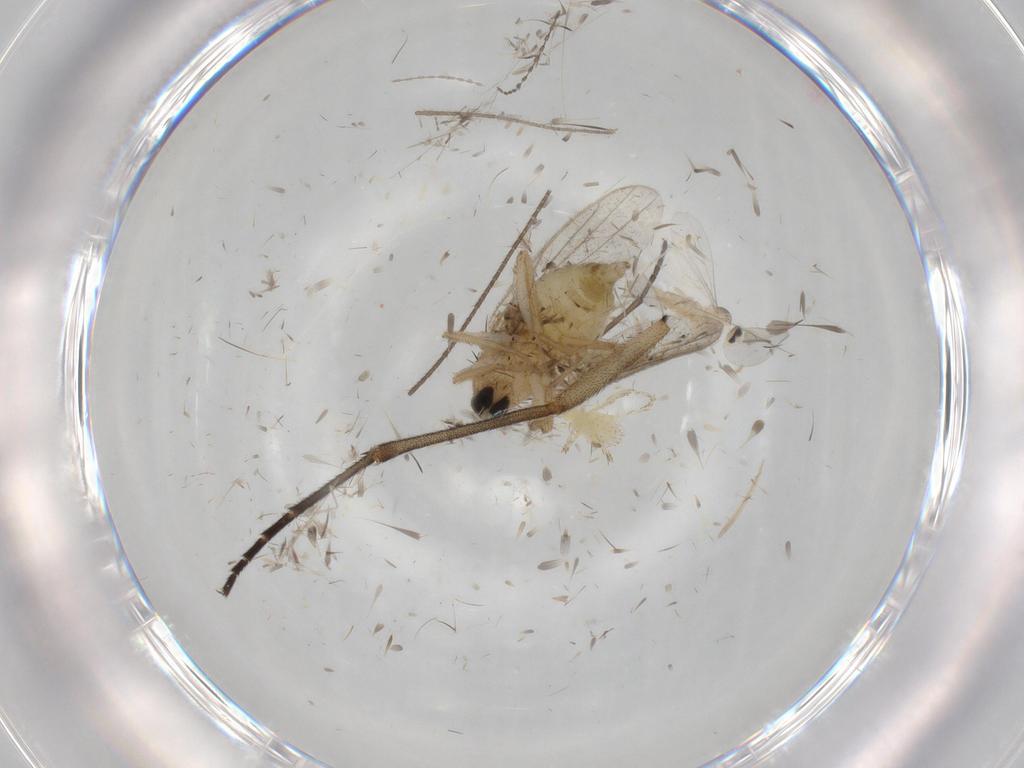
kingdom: Animalia
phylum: Arthropoda
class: Insecta
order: Diptera
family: Hybotidae
